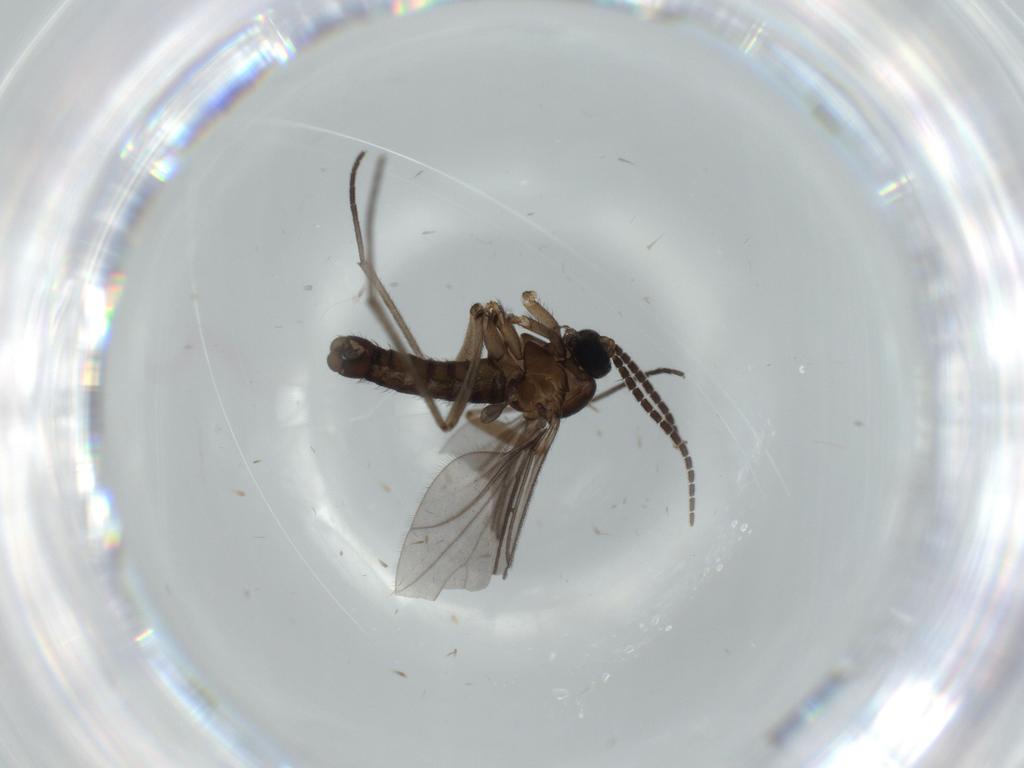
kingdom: Animalia
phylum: Arthropoda
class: Insecta
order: Diptera
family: Sciaridae
